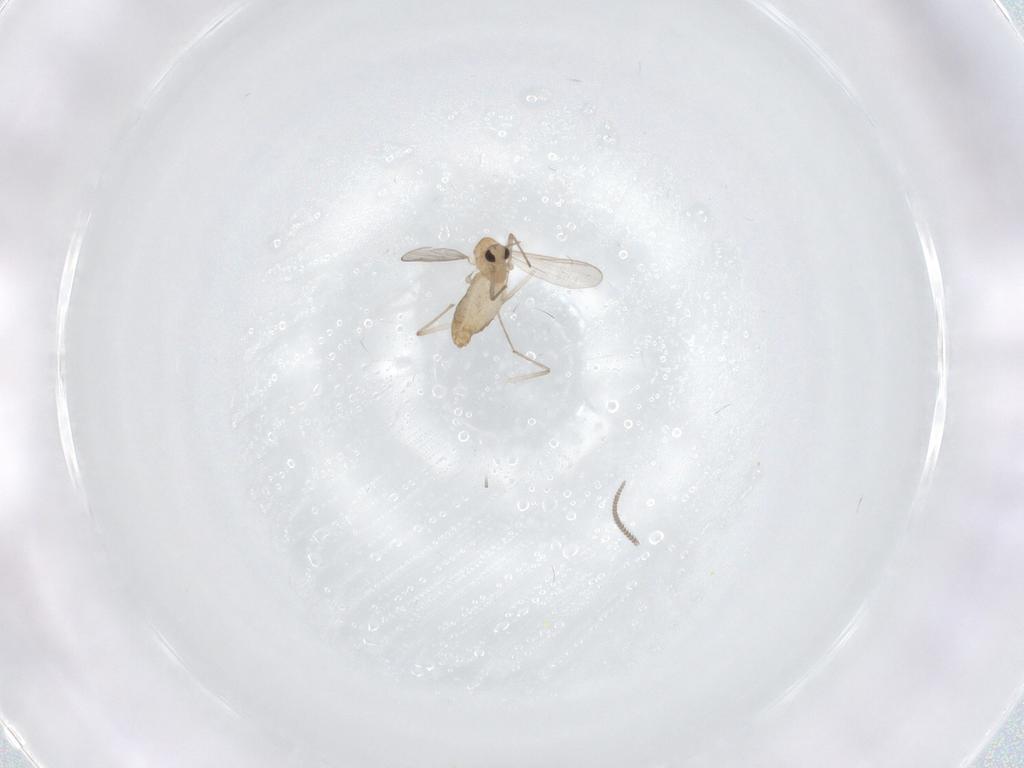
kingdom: Animalia
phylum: Arthropoda
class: Insecta
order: Diptera
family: Chironomidae
